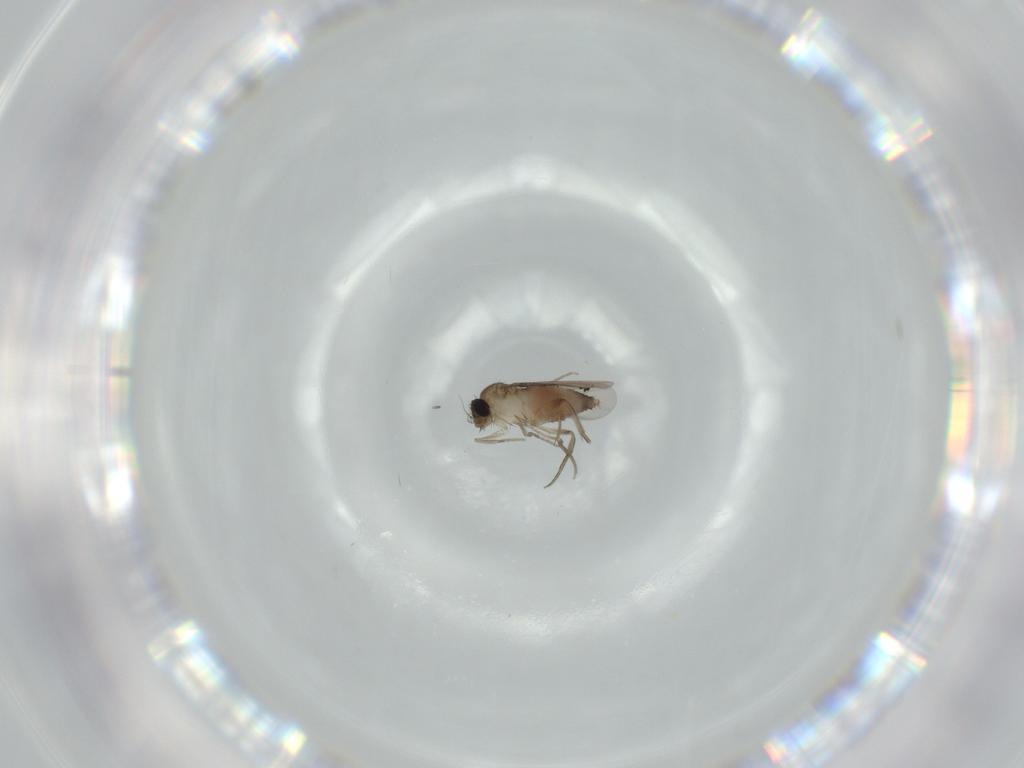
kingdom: Animalia
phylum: Arthropoda
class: Insecta
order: Diptera
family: Phoridae
